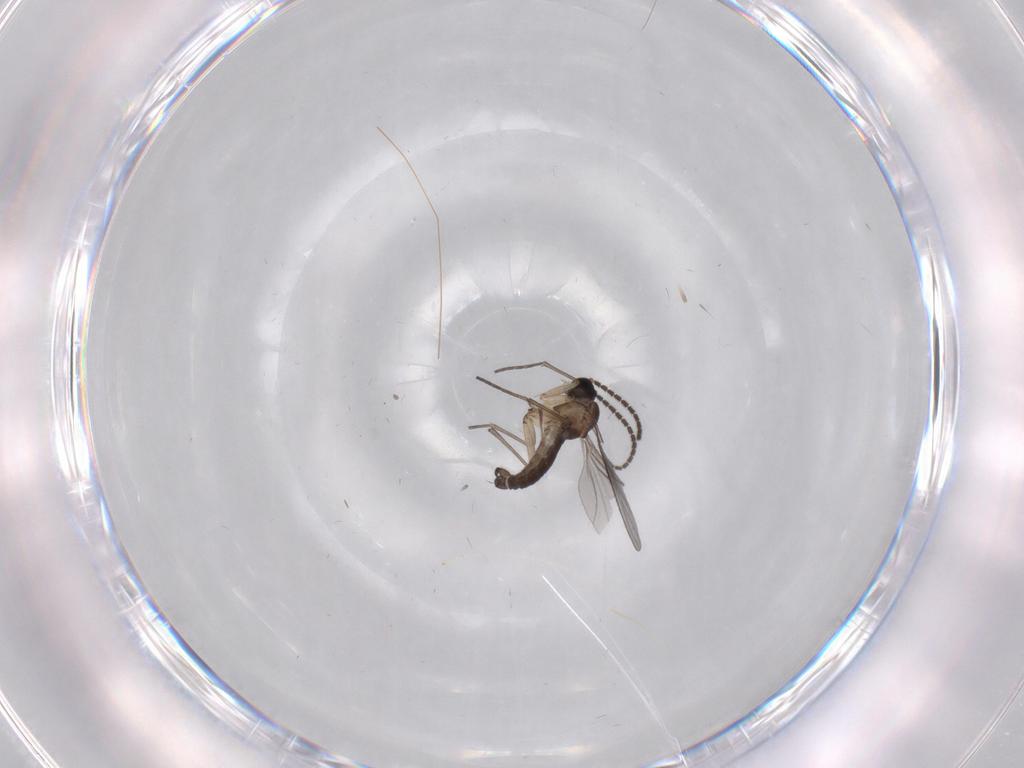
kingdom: Animalia
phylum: Arthropoda
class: Insecta
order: Diptera
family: Sciaridae
